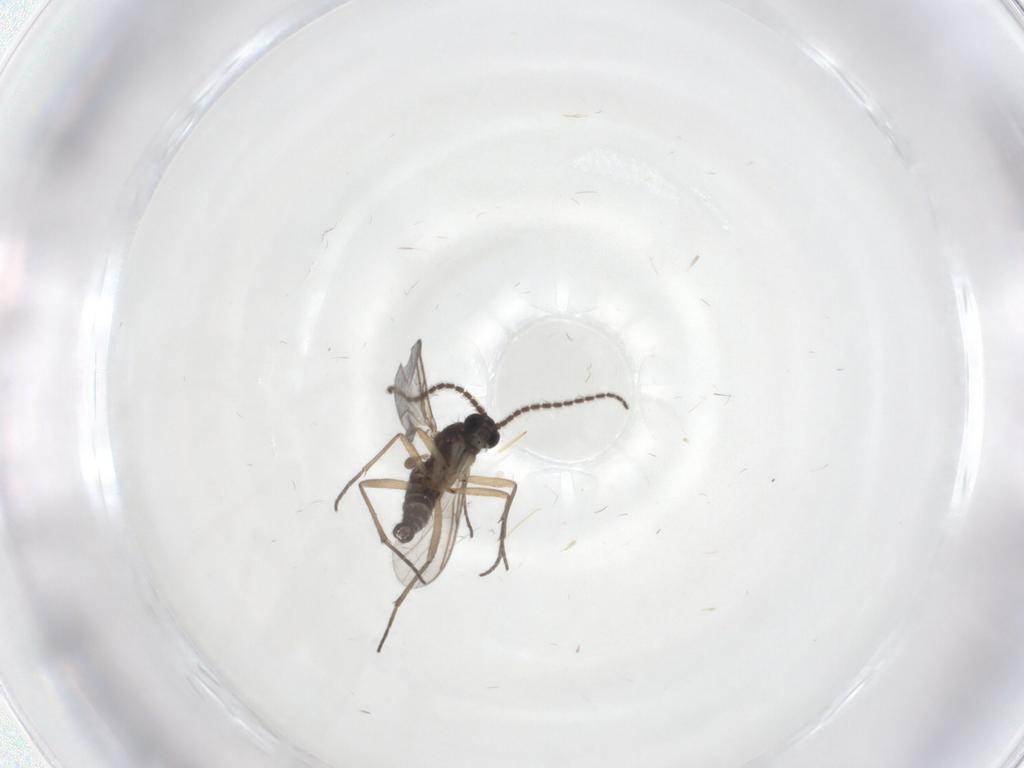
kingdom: Animalia
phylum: Arthropoda
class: Insecta
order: Diptera
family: Sciaridae
